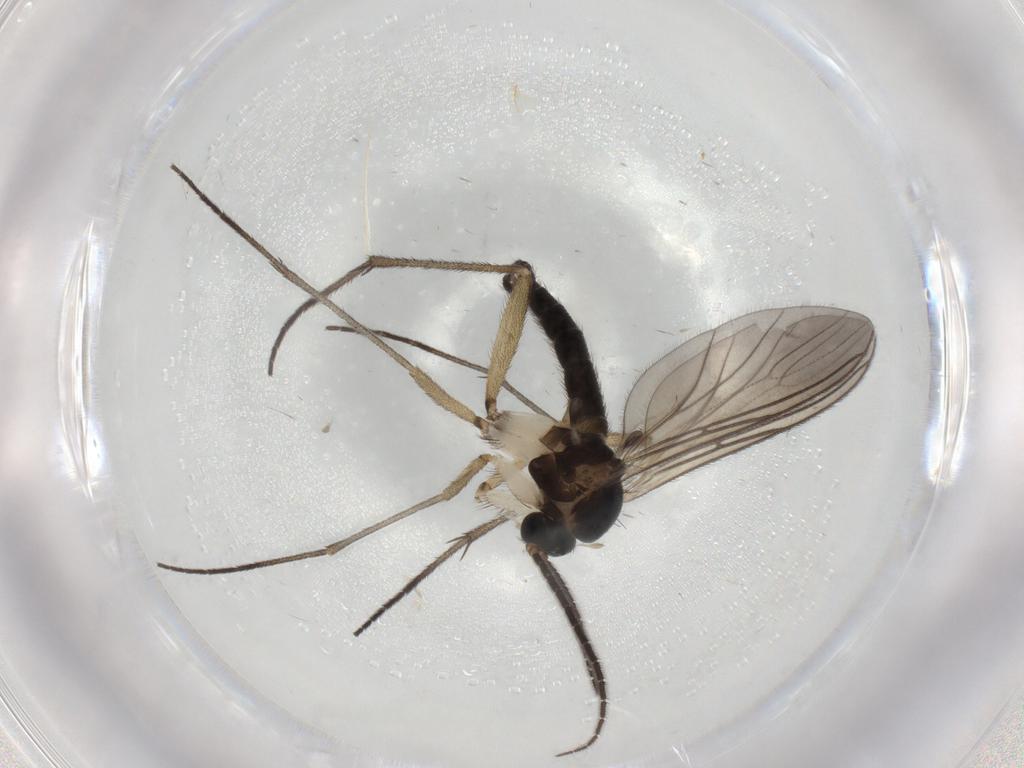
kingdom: Animalia
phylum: Arthropoda
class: Insecta
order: Diptera
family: Sciaridae
